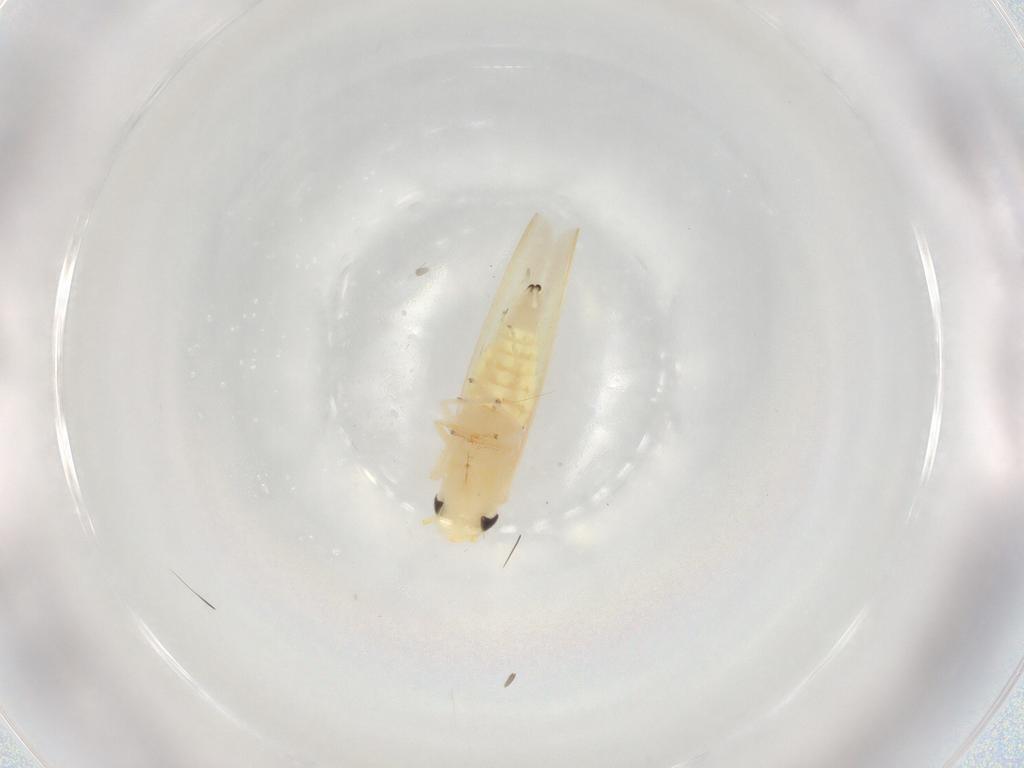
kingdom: Animalia
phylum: Arthropoda
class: Insecta
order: Hemiptera
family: Cicadellidae
